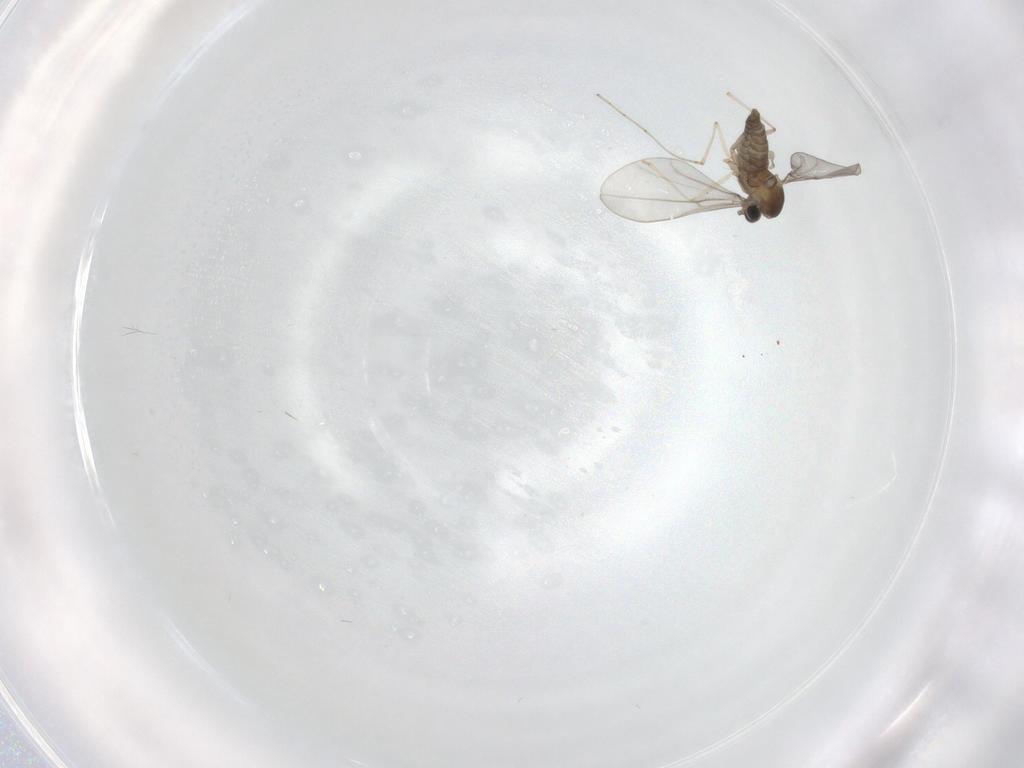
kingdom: Animalia
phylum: Arthropoda
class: Insecta
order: Diptera
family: Cecidomyiidae
